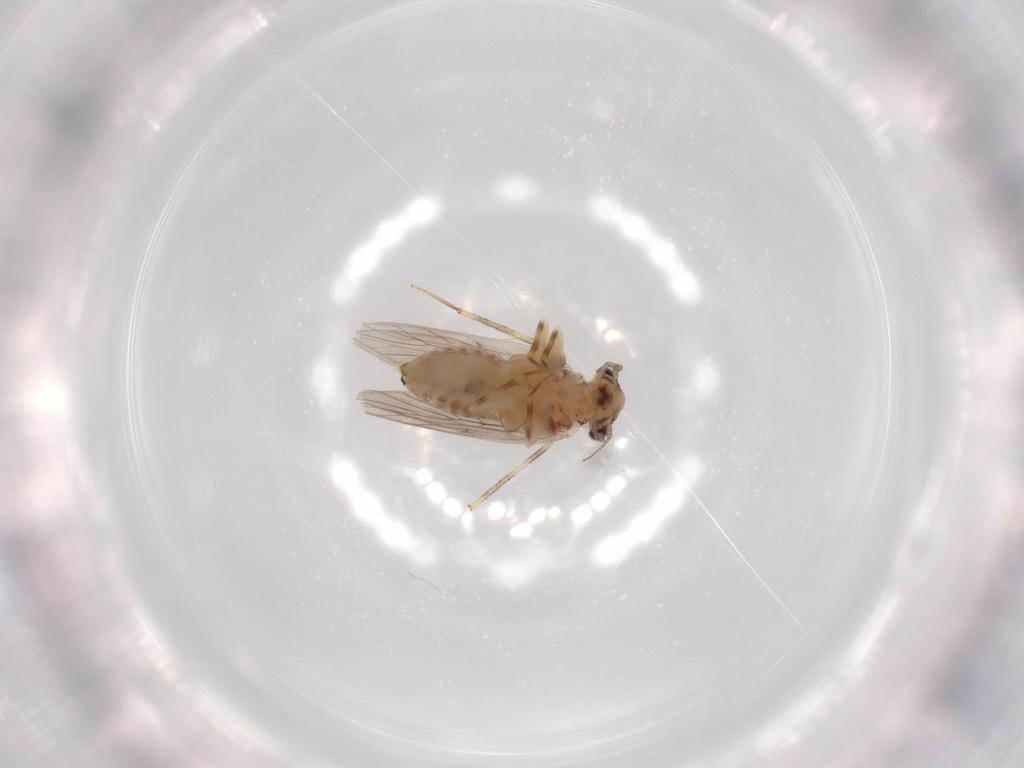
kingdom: Animalia
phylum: Arthropoda
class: Insecta
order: Psocodea
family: Lepidopsocidae
